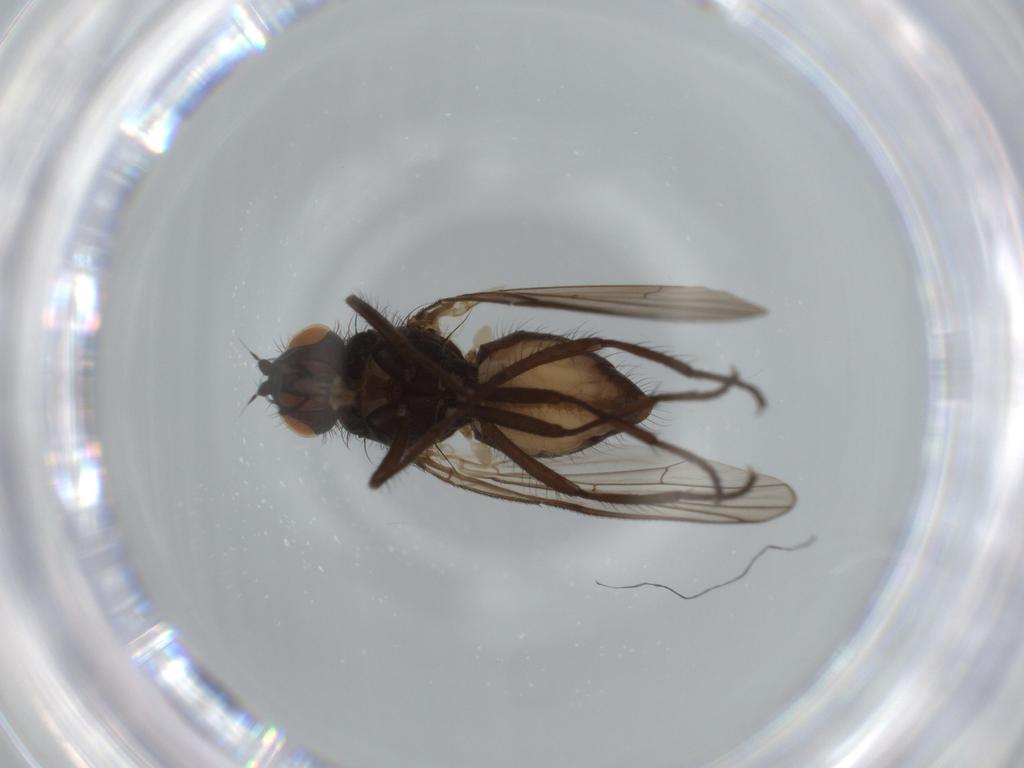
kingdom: Animalia
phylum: Arthropoda
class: Insecta
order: Diptera
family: Anthomyiidae
